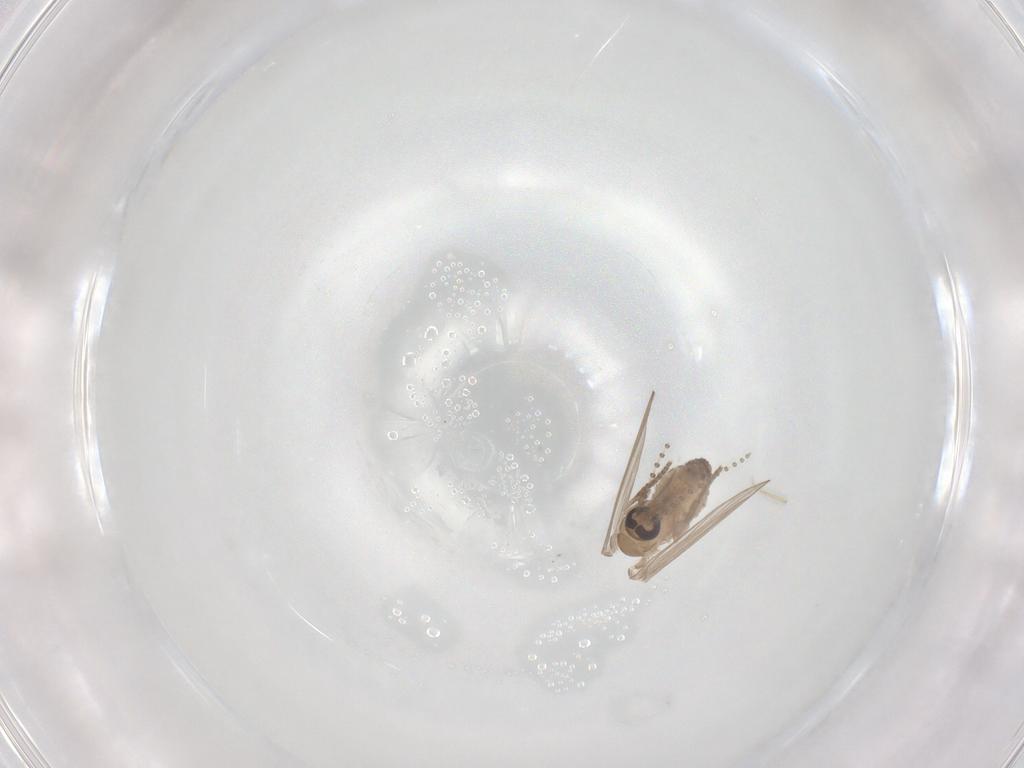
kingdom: Animalia
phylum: Arthropoda
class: Insecta
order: Diptera
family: Psychodidae
